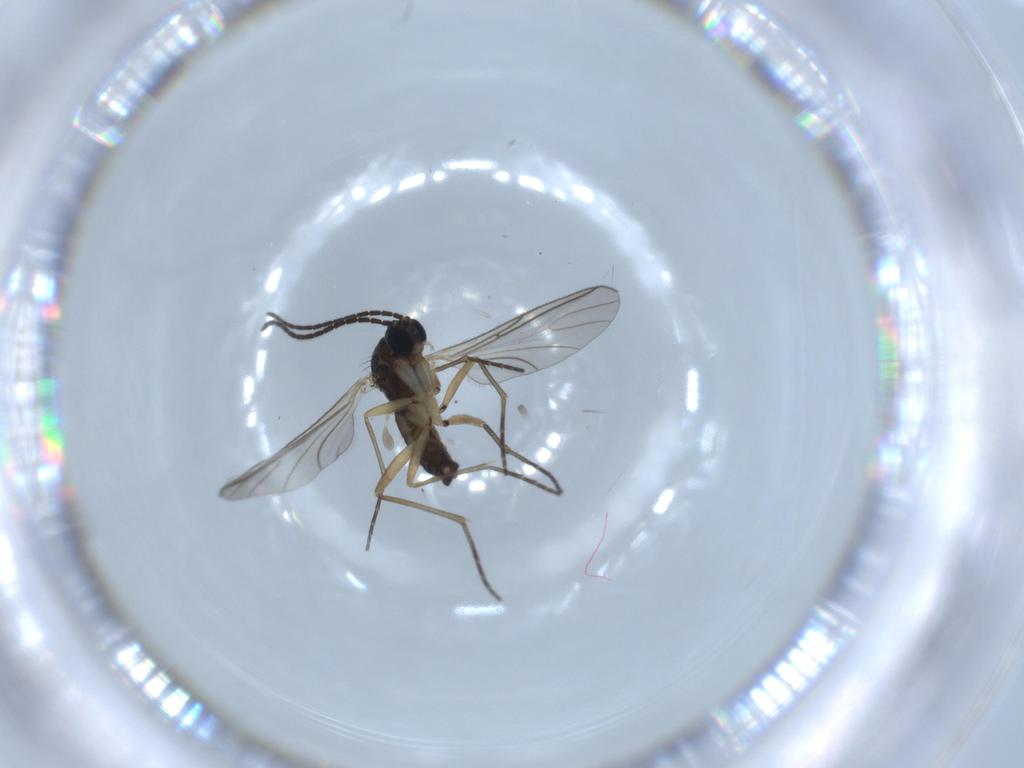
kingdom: Animalia
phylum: Arthropoda
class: Insecta
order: Diptera
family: Sciaridae
